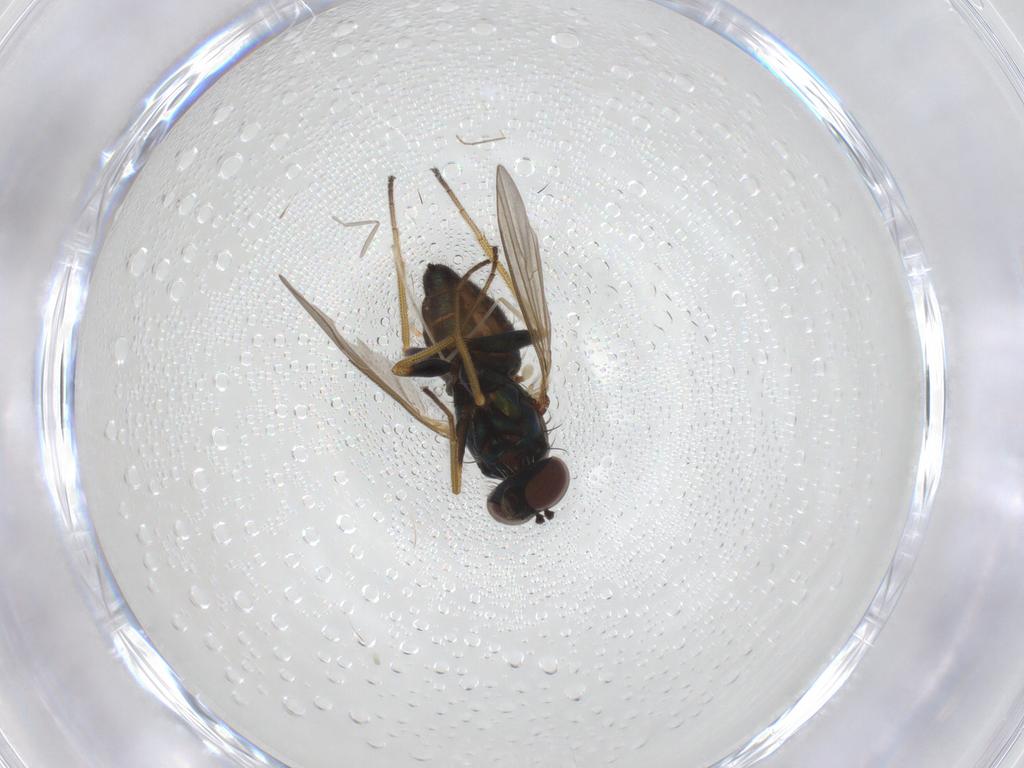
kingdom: Animalia
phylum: Arthropoda
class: Insecta
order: Diptera
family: Dolichopodidae
